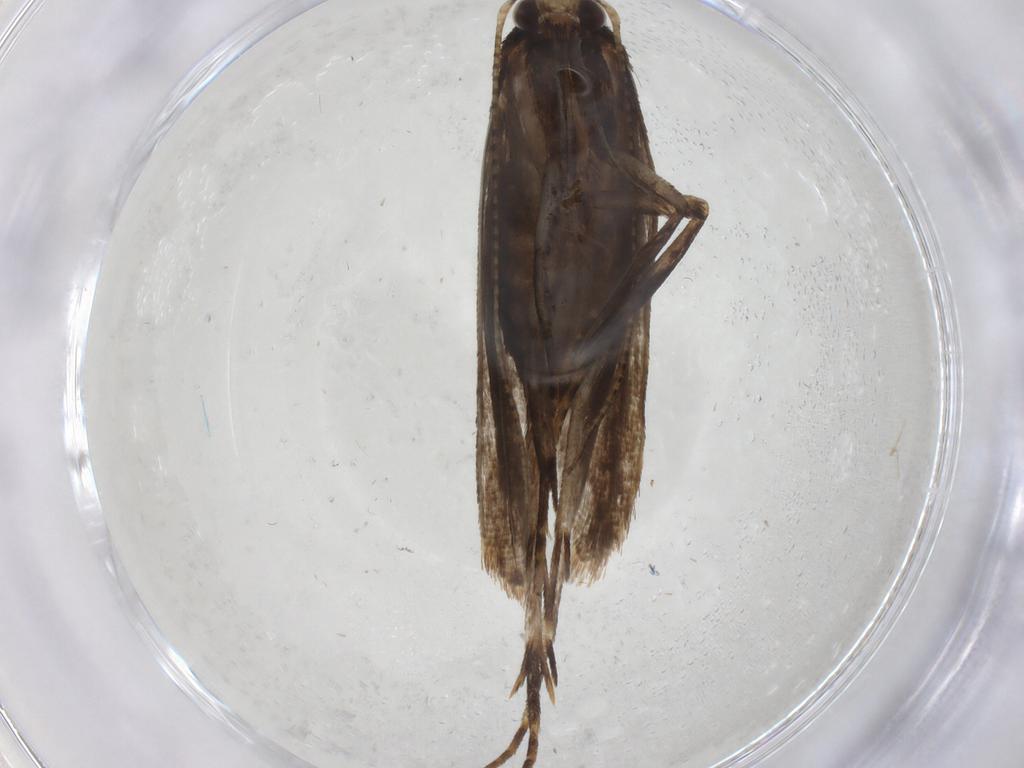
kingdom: Animalia
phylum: Arthropoda
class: Insecta
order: Lepidoptera
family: Gelechiidae
